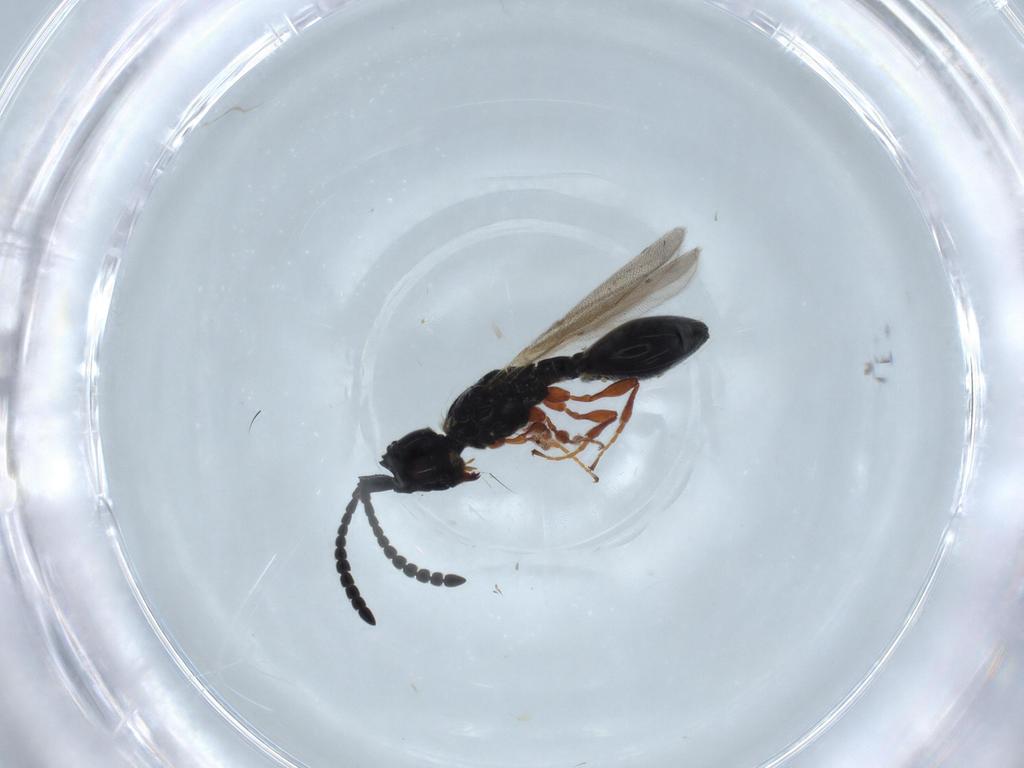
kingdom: Animalia
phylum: Arthropoda
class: Insecta
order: Hymenoptera
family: Diapriidae
